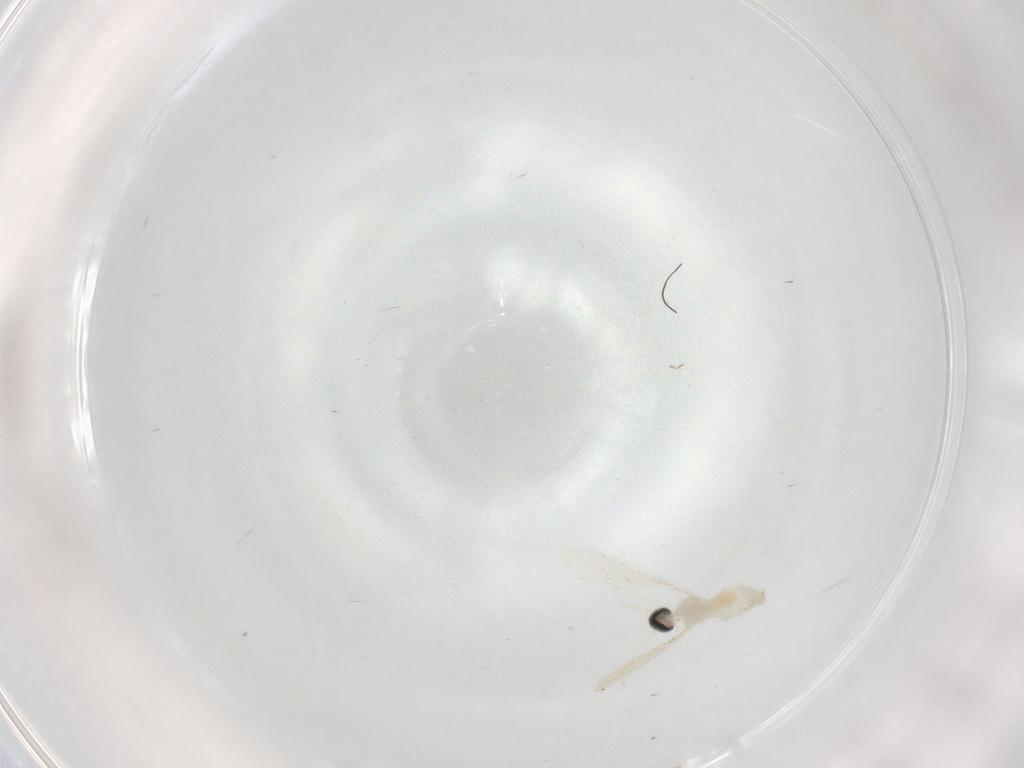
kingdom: Animalia
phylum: Arthropoda
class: Insecta
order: Diptera
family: Cecidomyiidae
